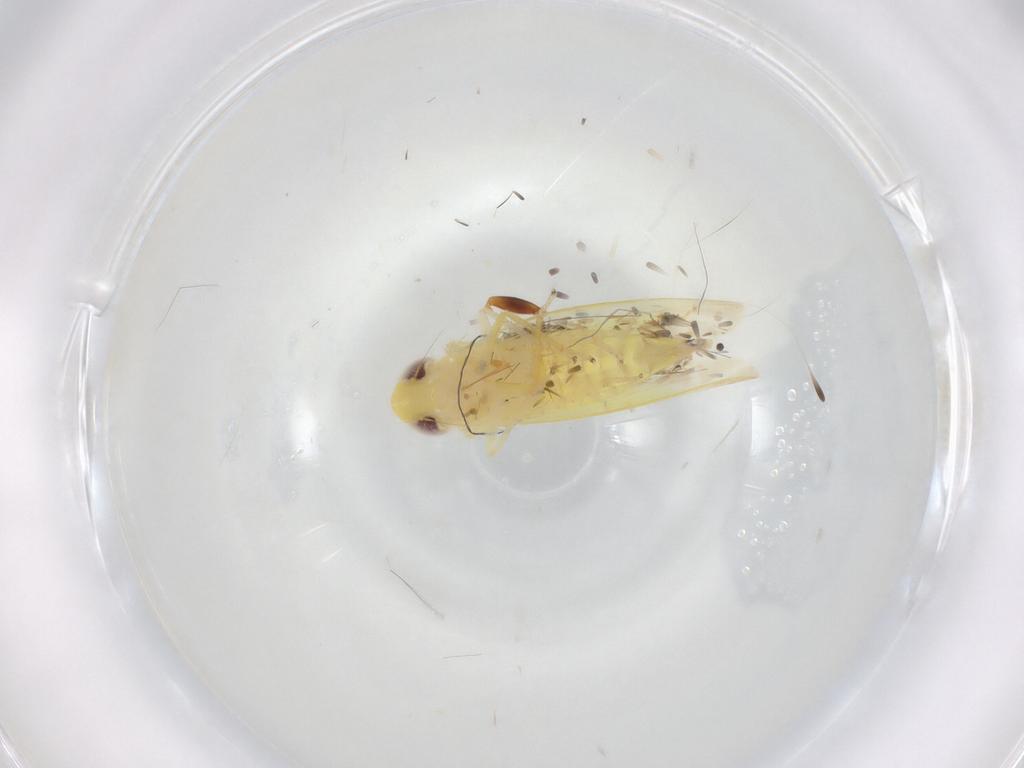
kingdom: Animalia
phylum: Arthropoda
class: Insecta
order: Hemiptera
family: Cicadellidae
